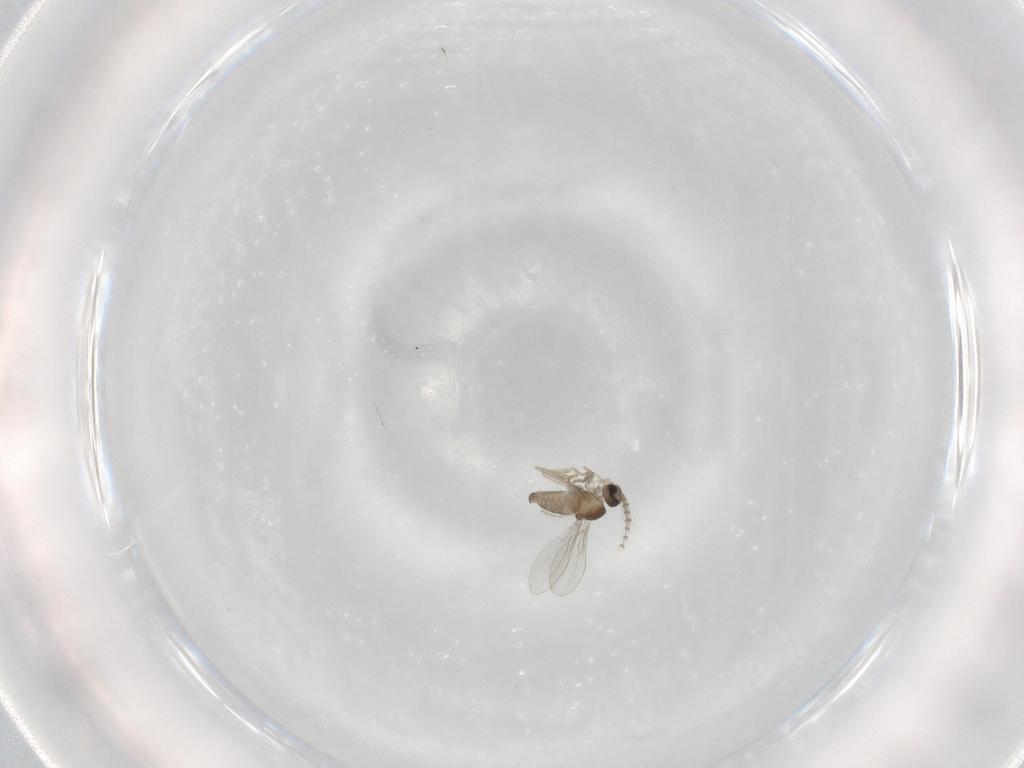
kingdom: Animalia
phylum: Arthropoda
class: Insecta
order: Diptera
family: Cecidomyiidae
